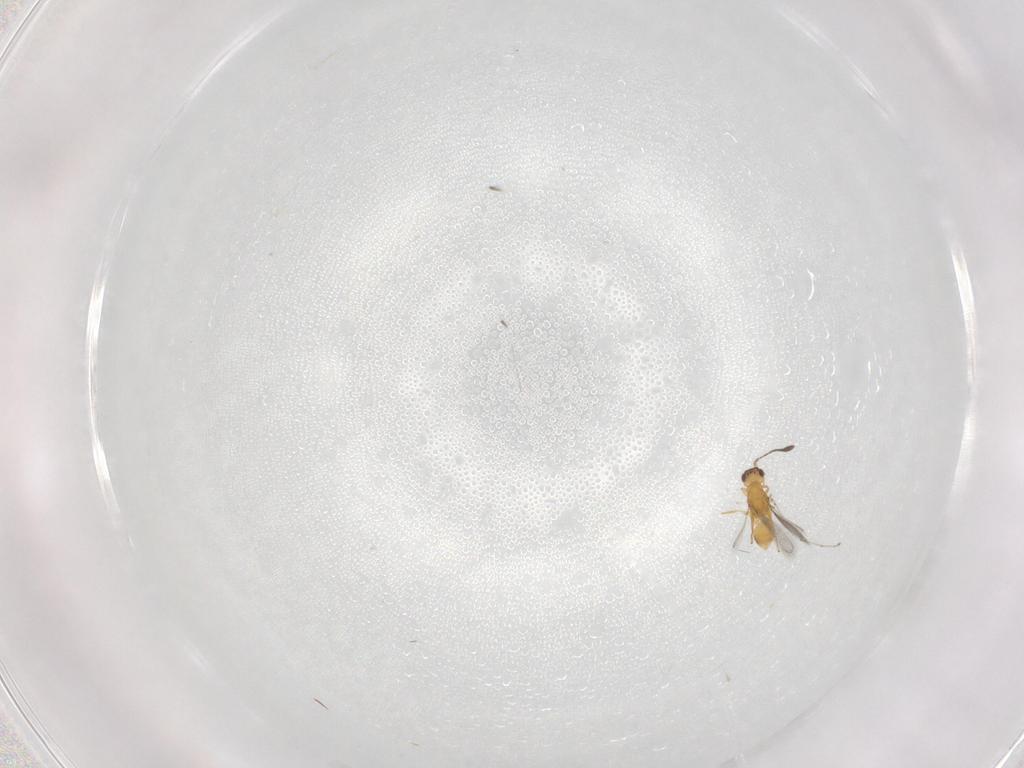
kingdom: Animalia
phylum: Arthropoda
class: Insecta
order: Hymenoptera
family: Mymaridae
